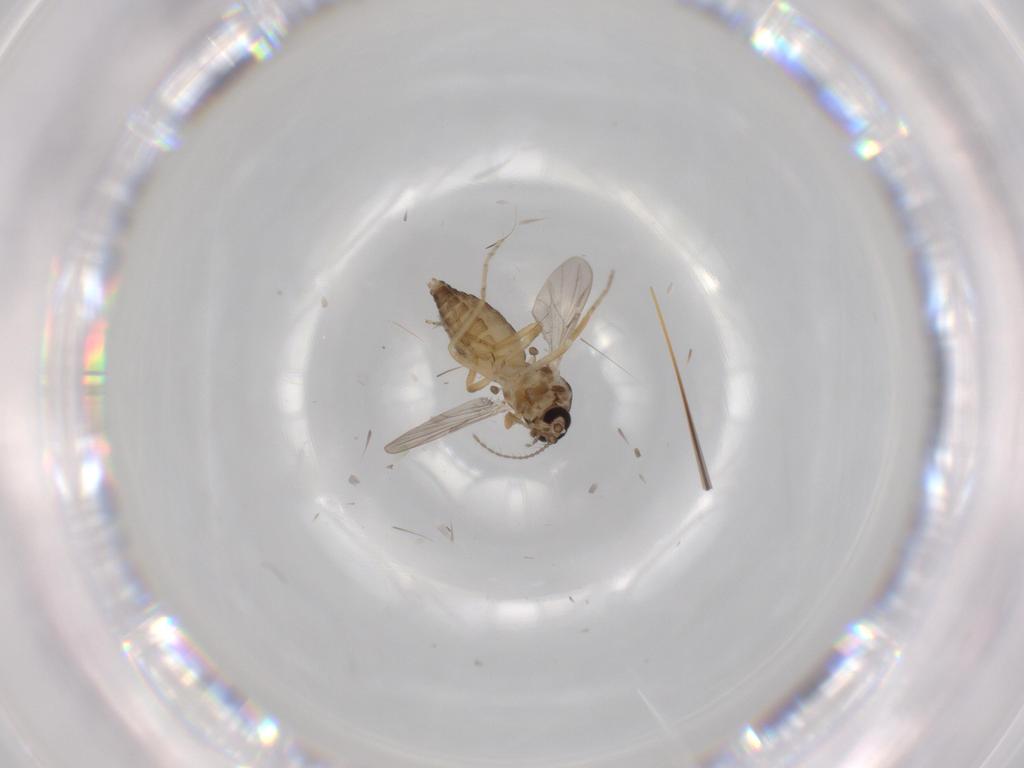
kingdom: Animalia
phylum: Arthropoda
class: Insecta
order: Diptera
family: Ceratopogonidae
